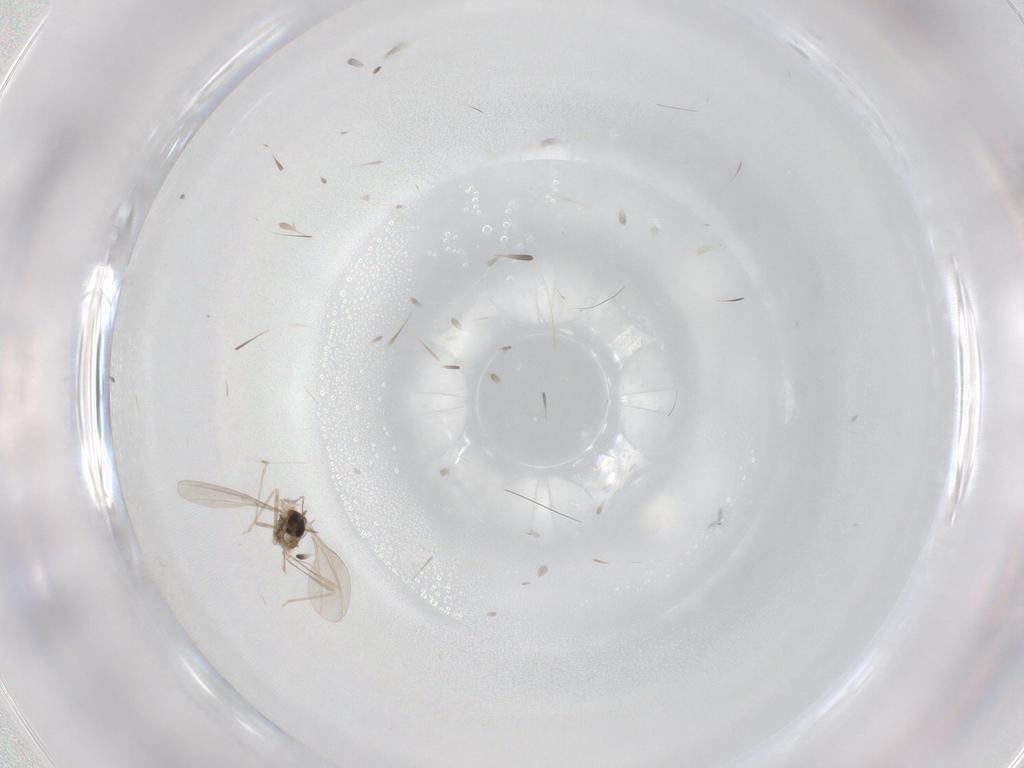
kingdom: Animalia
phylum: Arthropoda
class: Insecta
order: Diptera
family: Cecidomyiidae
